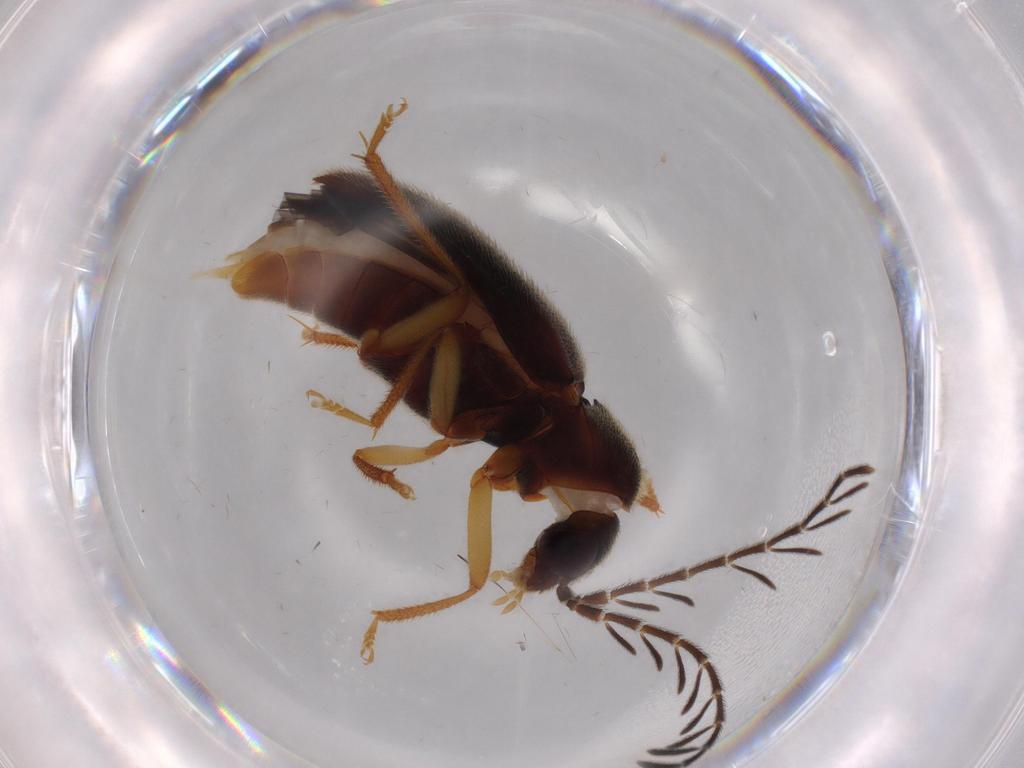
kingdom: Animalia
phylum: Arthropoda
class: Insecta
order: Coleoptera
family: Ptilodactylidae
